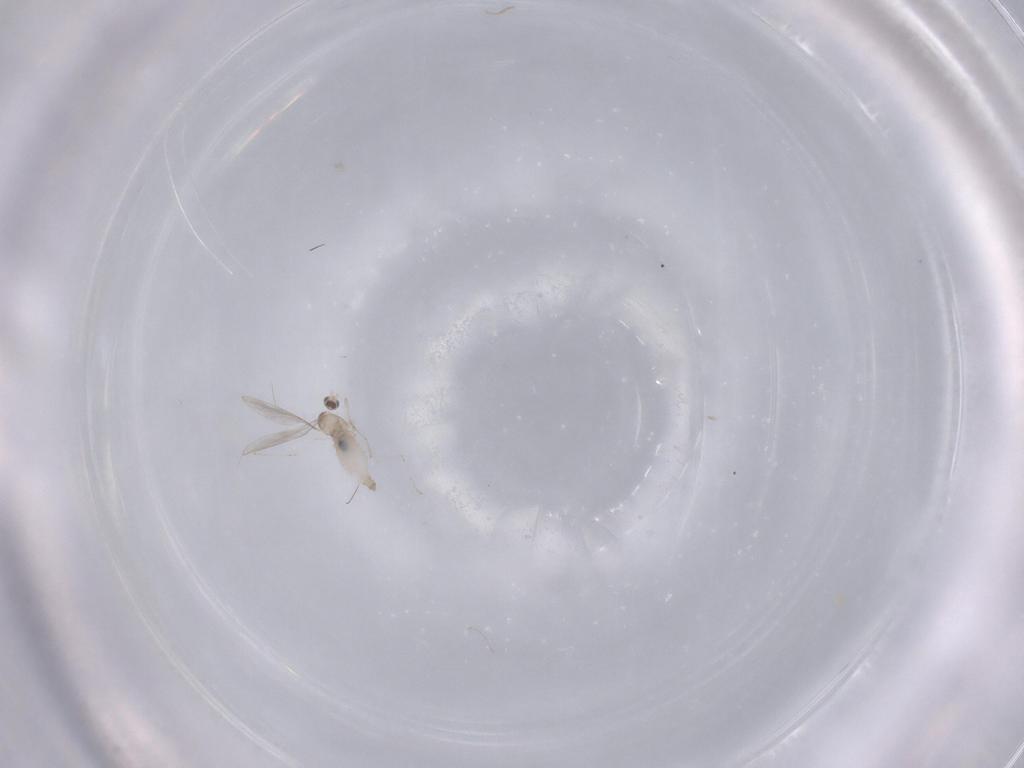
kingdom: Animalia
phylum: Arthropoda
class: Insecta
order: Diptera
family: Cecidomyiidae
